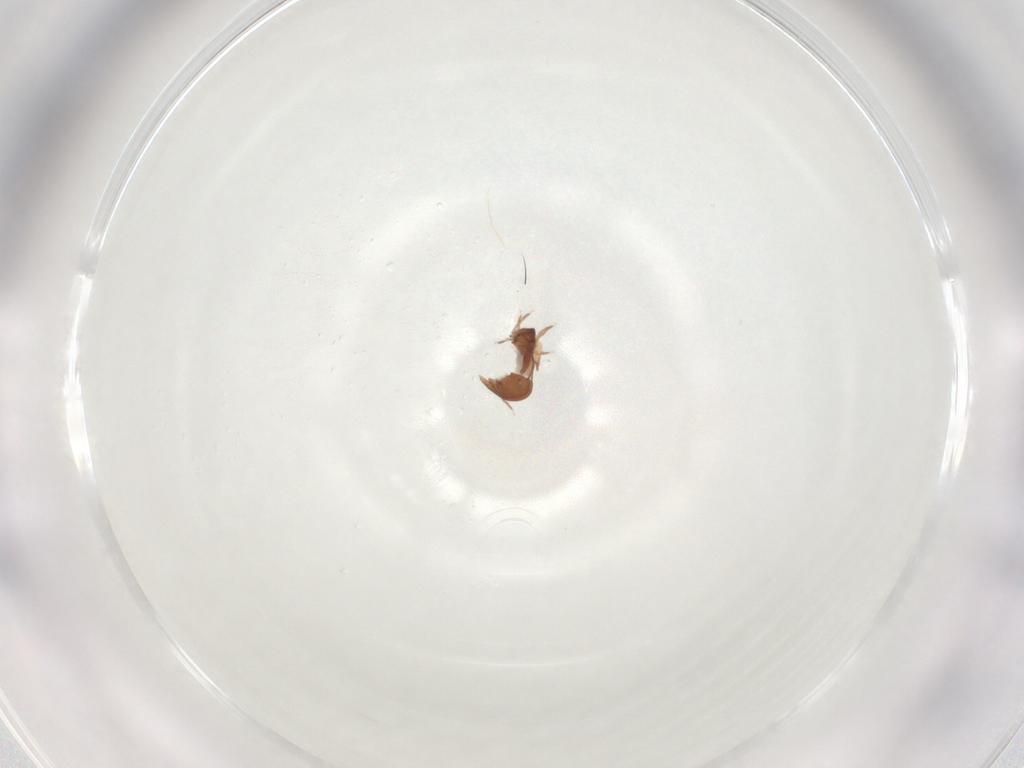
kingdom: Animalia
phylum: Arthropoda
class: Arachnida
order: Sarcoptiformes
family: Galumnidae
